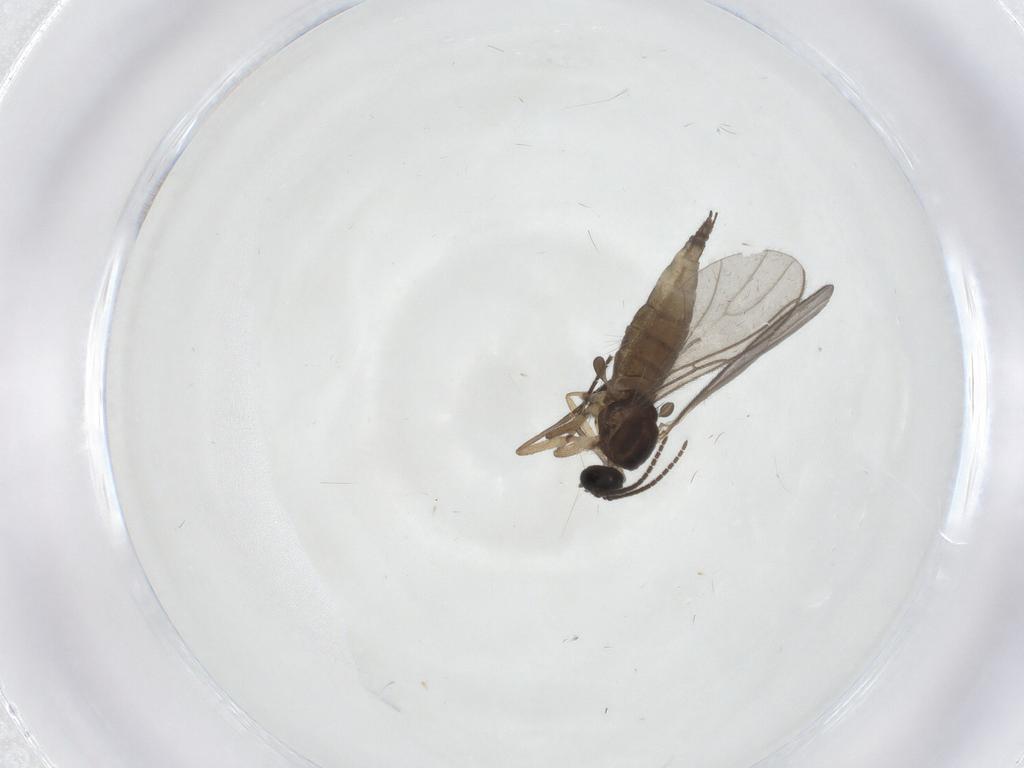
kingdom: Animalia
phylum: Arthropoda
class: Insecta
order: Diptera
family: Sciaridae
